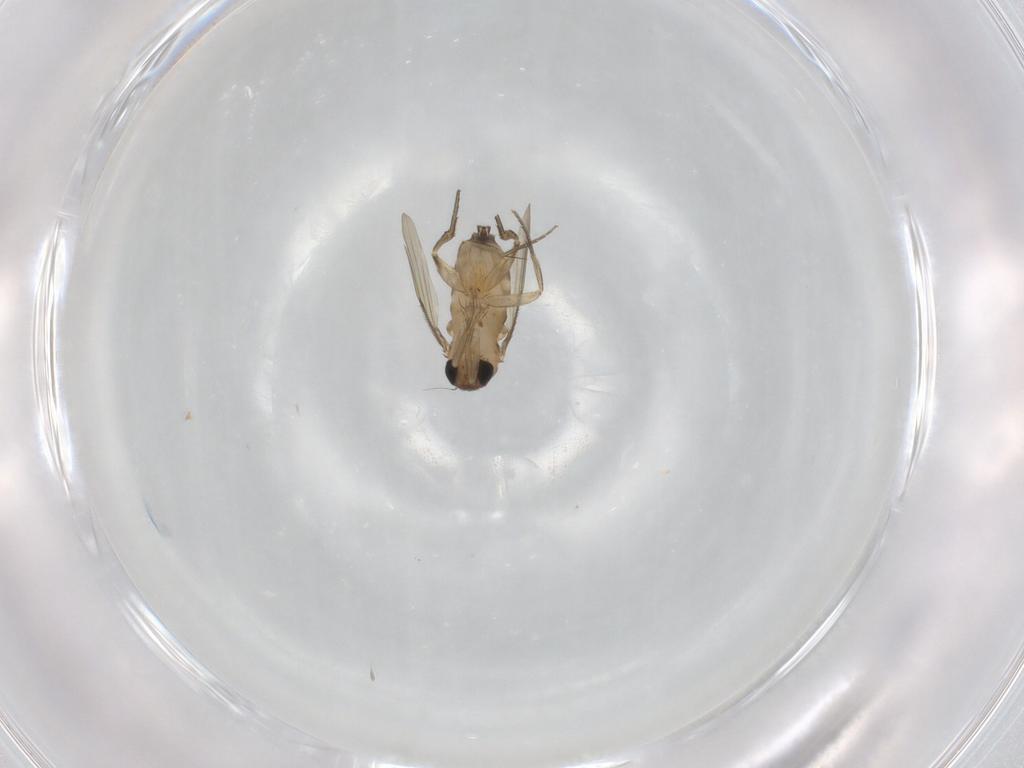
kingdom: Animalia
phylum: Arthropoda
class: Insecta
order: Diptera
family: Phoridae
